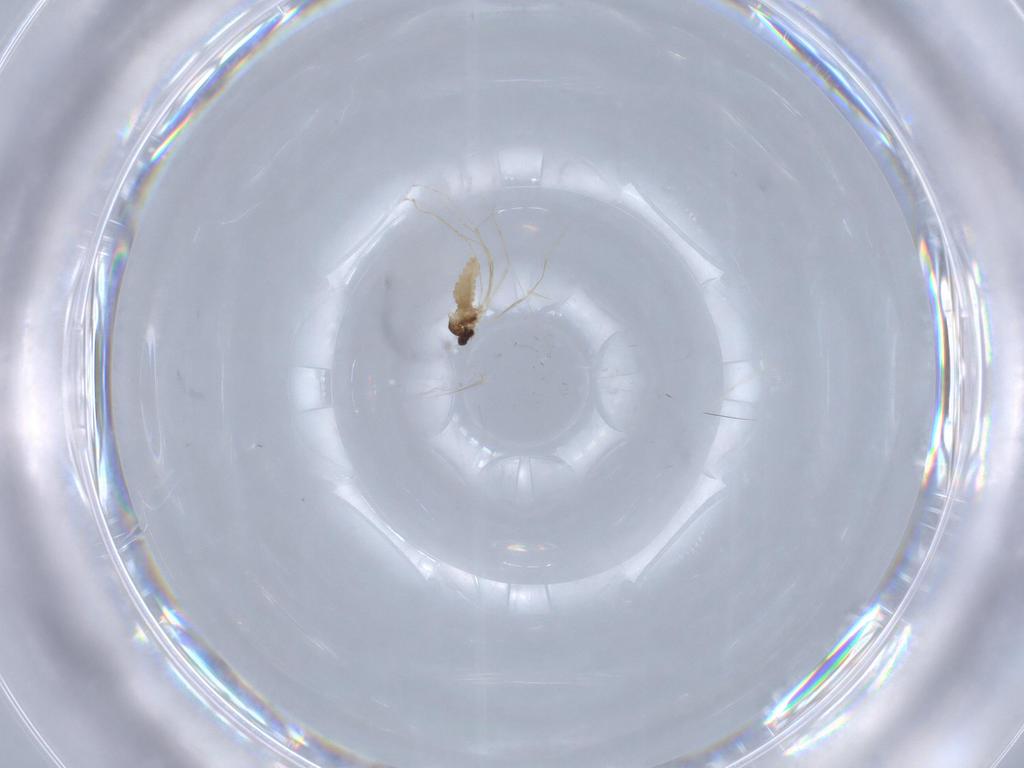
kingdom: Animalia
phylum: Arthropoda
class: Insecta
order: Diptera
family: Cecidomyiidae
